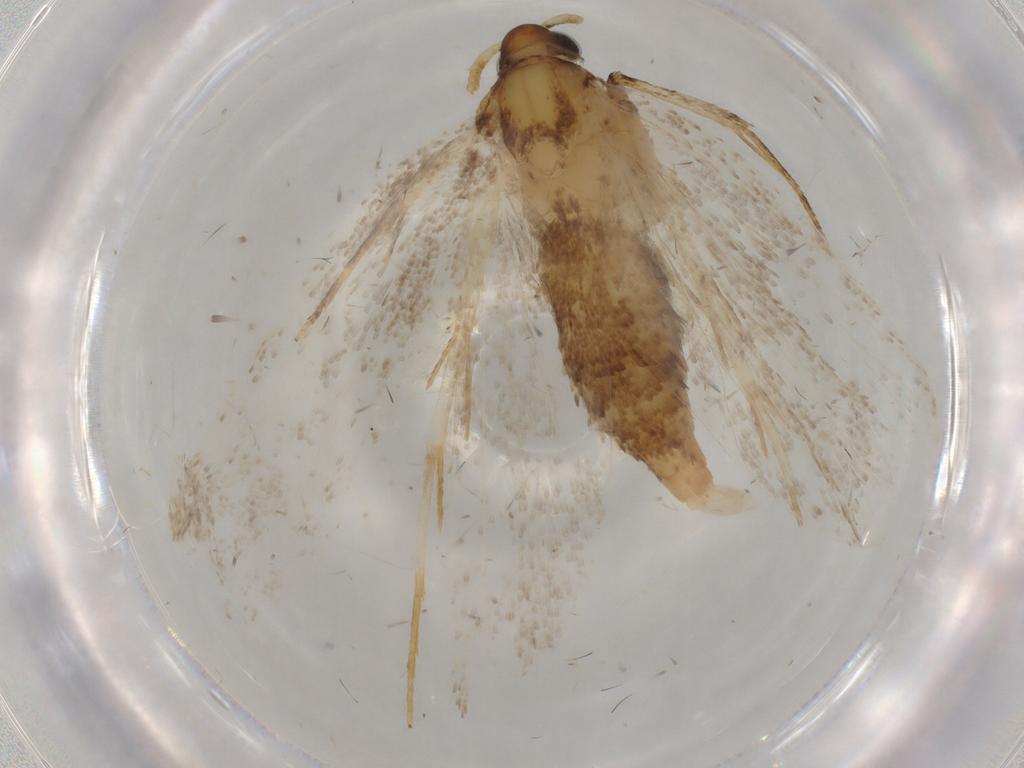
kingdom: Animalia
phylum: Arthropoda
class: Insecta
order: Lepidoptera
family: Lecithoceridae
